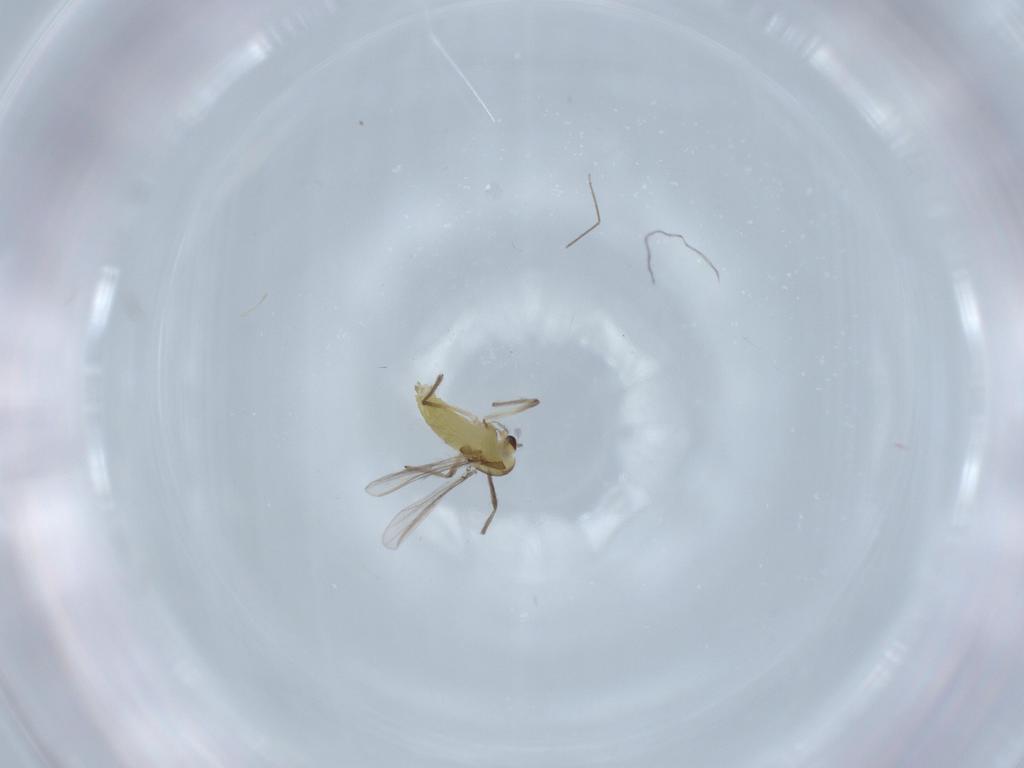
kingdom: Animalia
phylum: Arthropoda
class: Insecta
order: Diptera
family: Chironomidae
